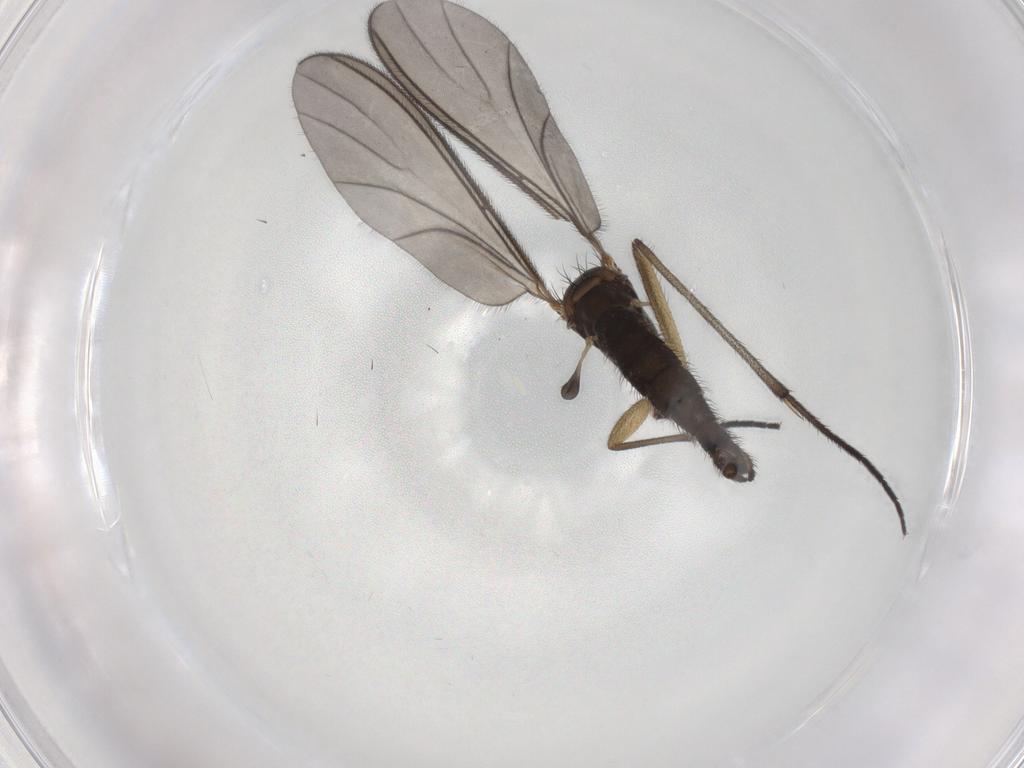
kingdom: Animalia
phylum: Arthropoda
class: Insecta
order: Diptera
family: Sciaridae
